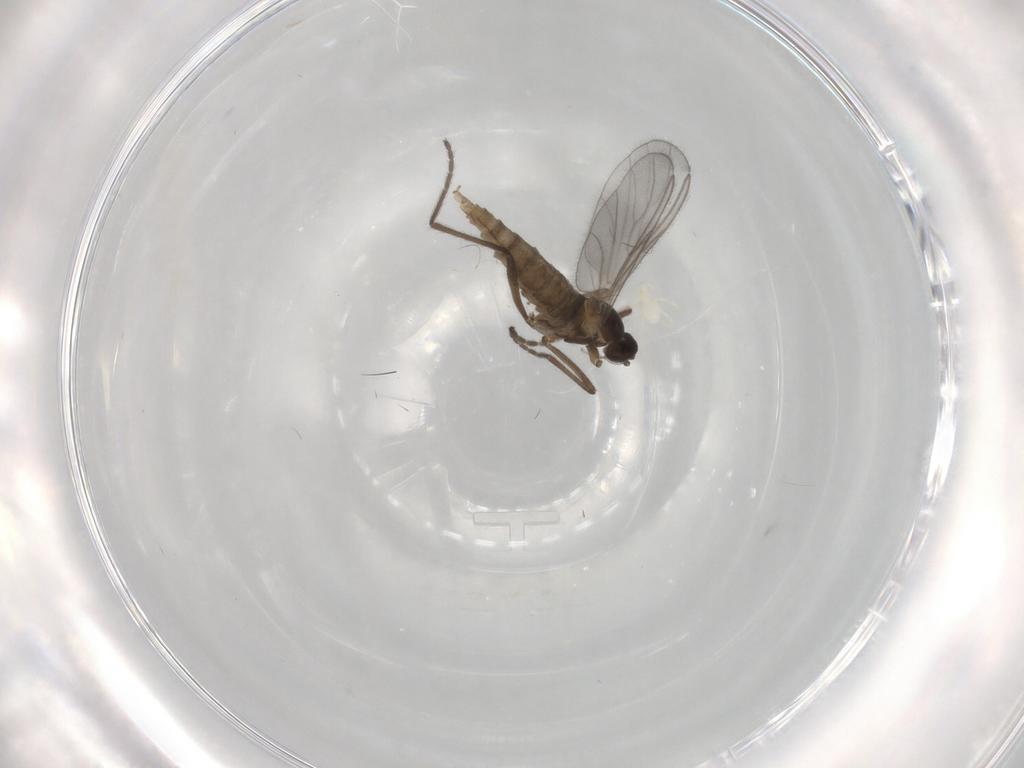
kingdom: Animalia
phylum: Arthropoda
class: Insecta
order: Diptera
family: Cecidomyiidae
